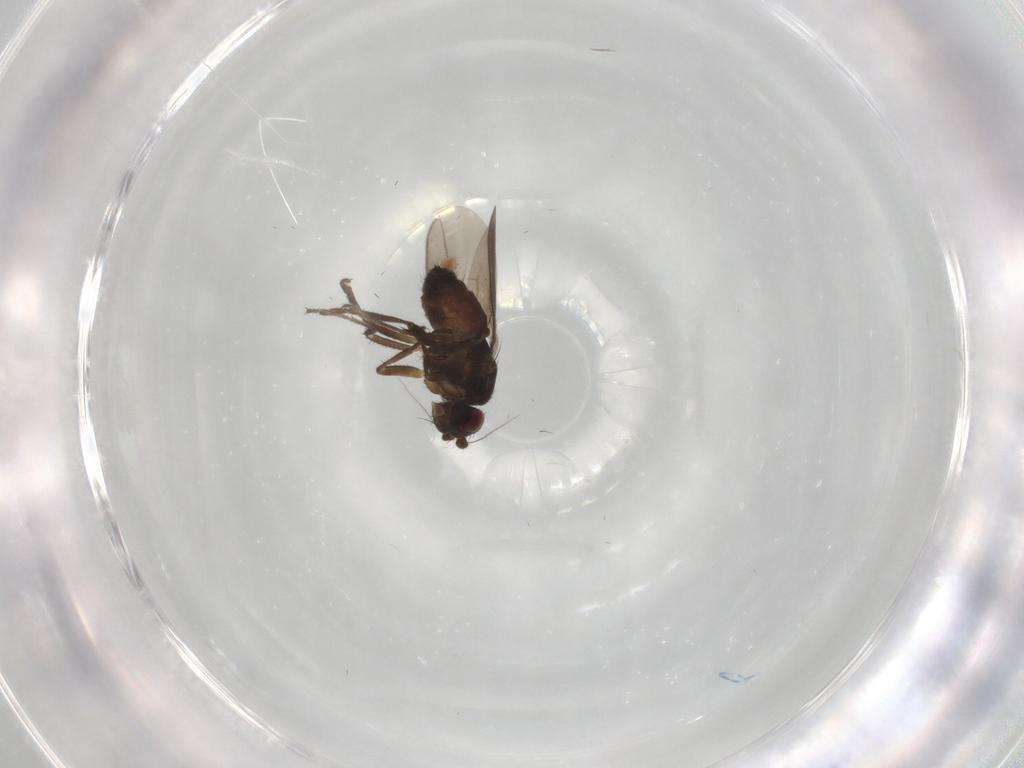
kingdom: Animalia
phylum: Arthropoda
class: Insecta
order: Diptera
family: Sphaeroceridae
